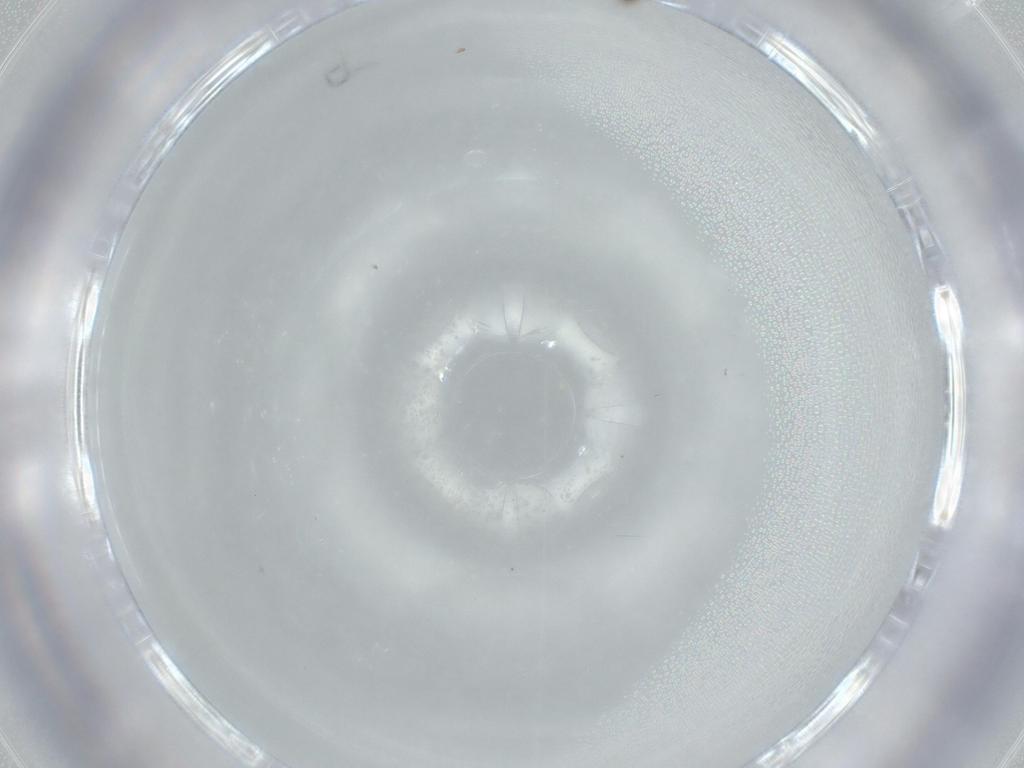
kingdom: Animalia
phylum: Arthropoda
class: Insecta
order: Diptera
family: Cecidomyiidae
